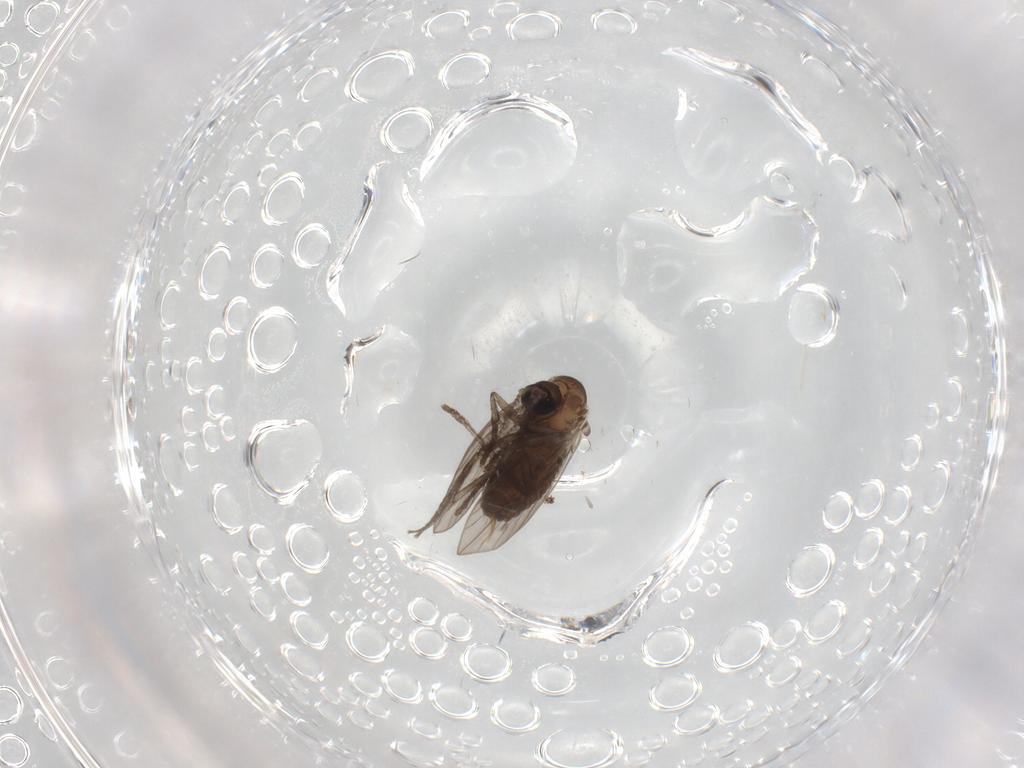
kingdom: Animalia
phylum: Arthropoda
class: Insecta
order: Diptera
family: Psychodidae
